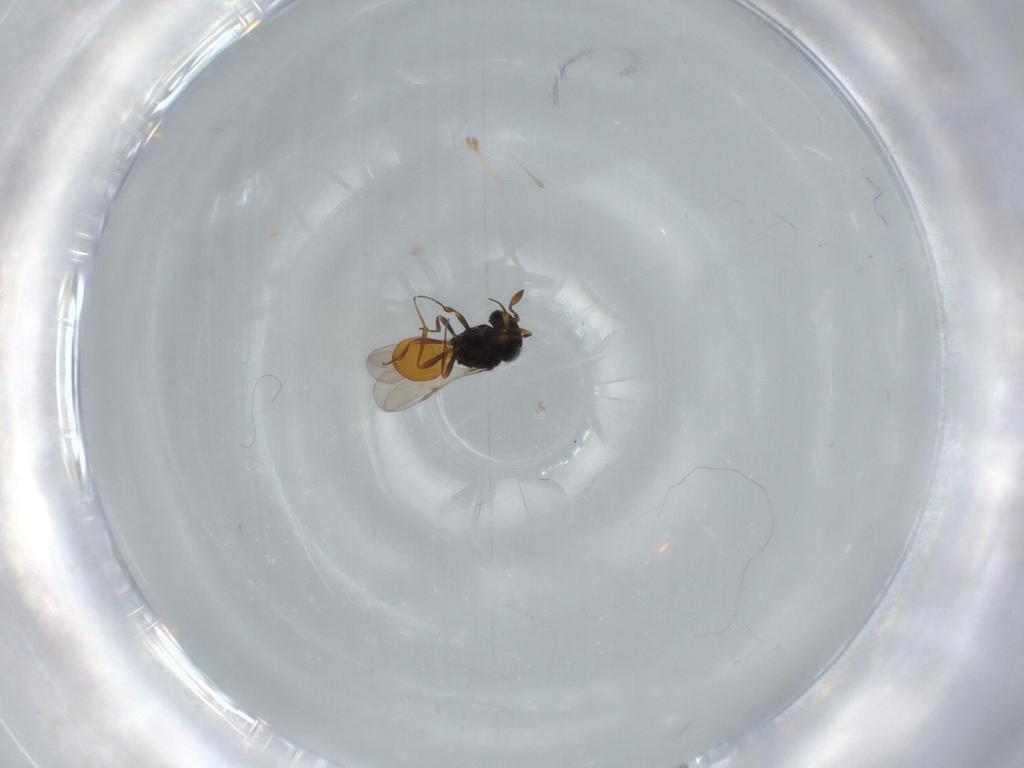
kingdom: Animalia
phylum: Arthropoda
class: Insecta
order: Hymenoptera
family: Scelionidae
